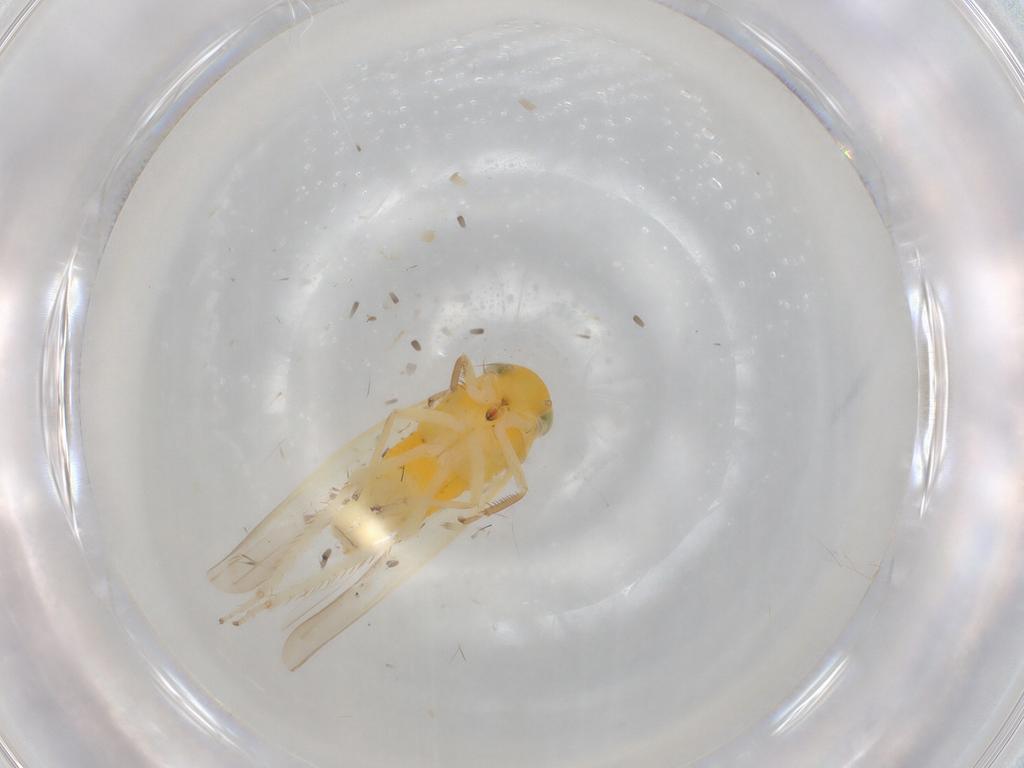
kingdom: Animalia
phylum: Arthropoda
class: Insecta
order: Hemiptera
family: Cicadellidae
